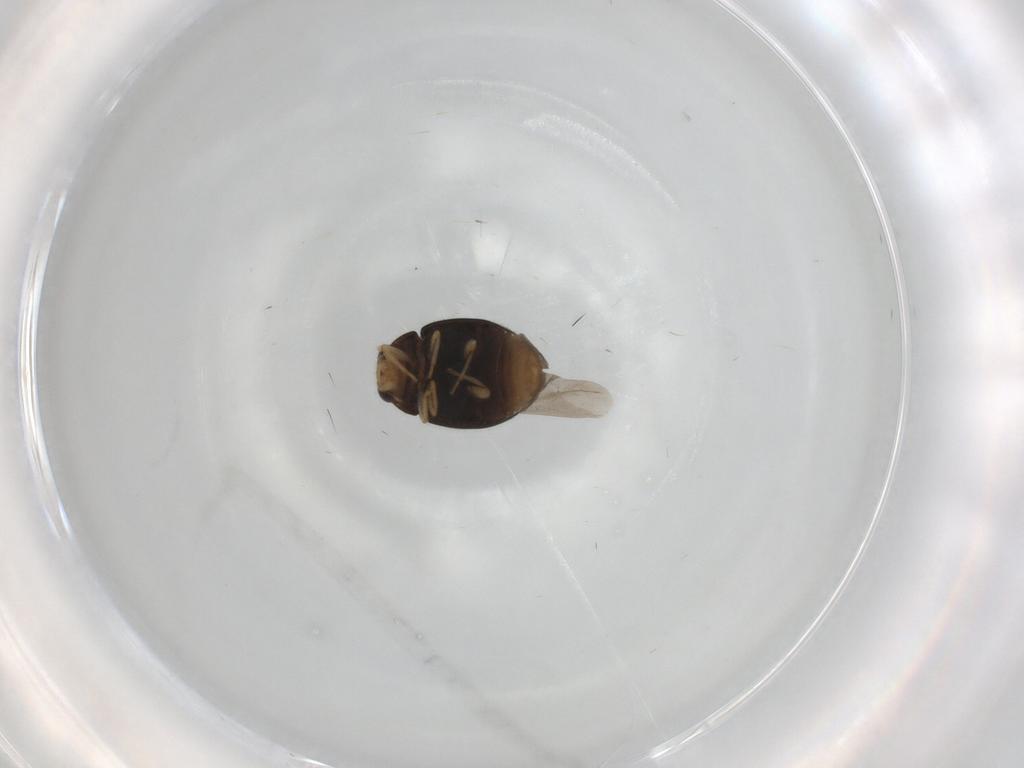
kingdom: Animalia
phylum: Arthropoda
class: Insecta
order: Coleoptera
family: Coccinellidae
